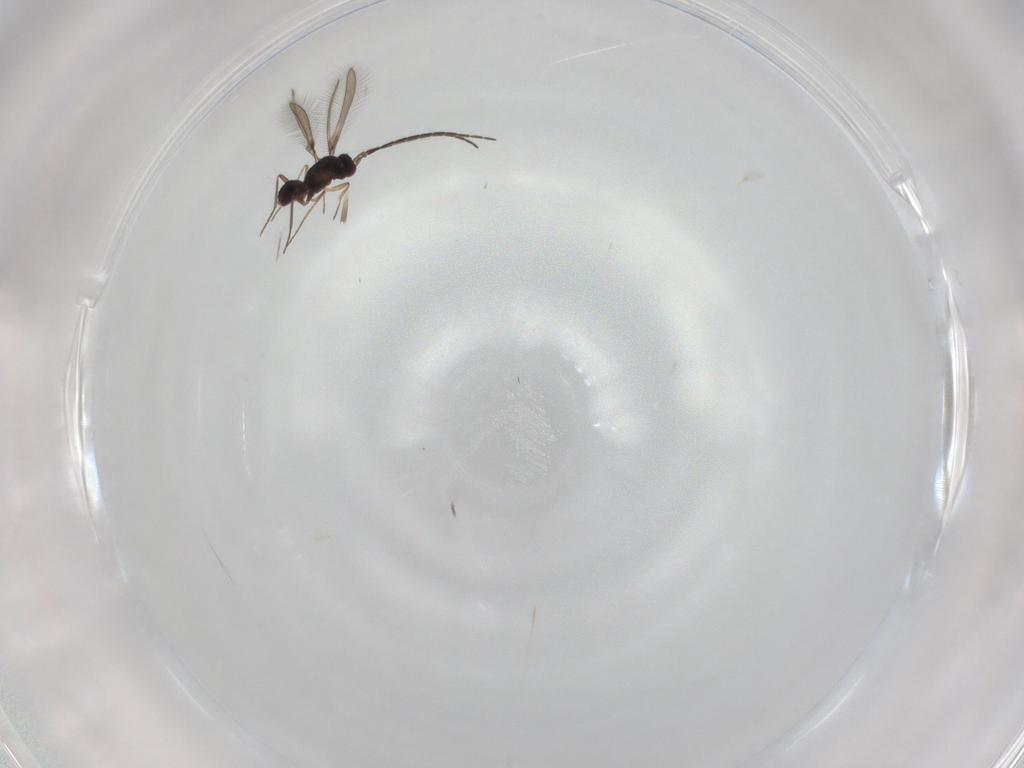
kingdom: Animalia
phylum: Arthropoda
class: Insecta
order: Hymenoptera
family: Mymaridae
